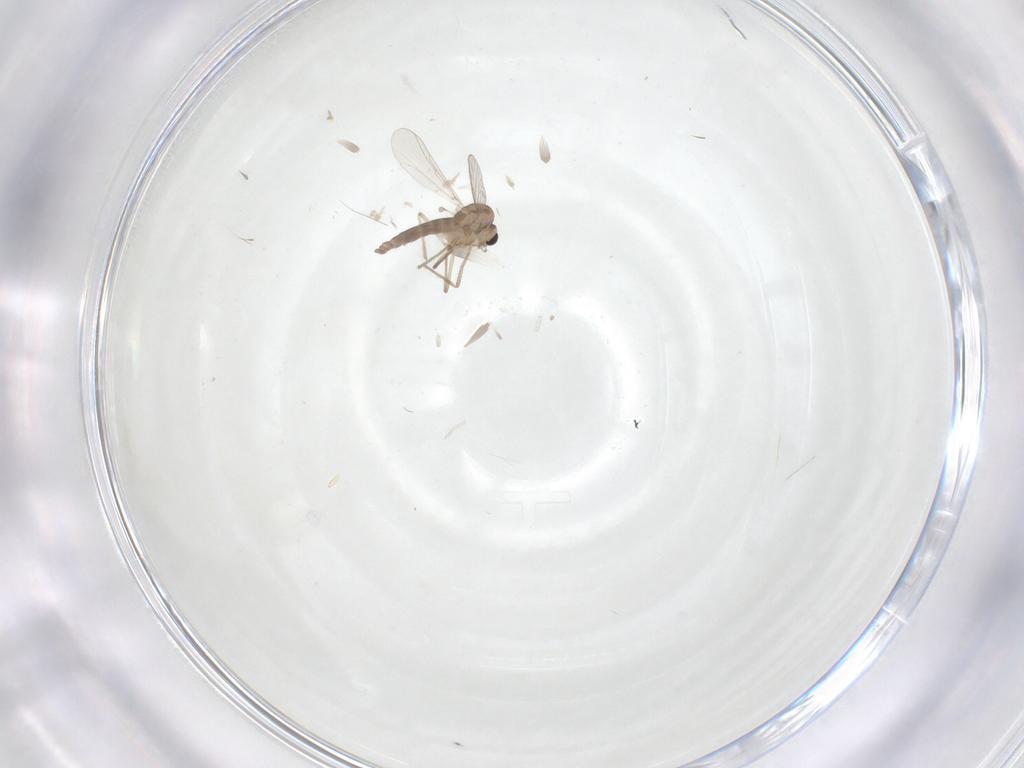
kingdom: Animalia
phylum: Arthropoda
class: Insecta
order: Diptera
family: Chironomidae
